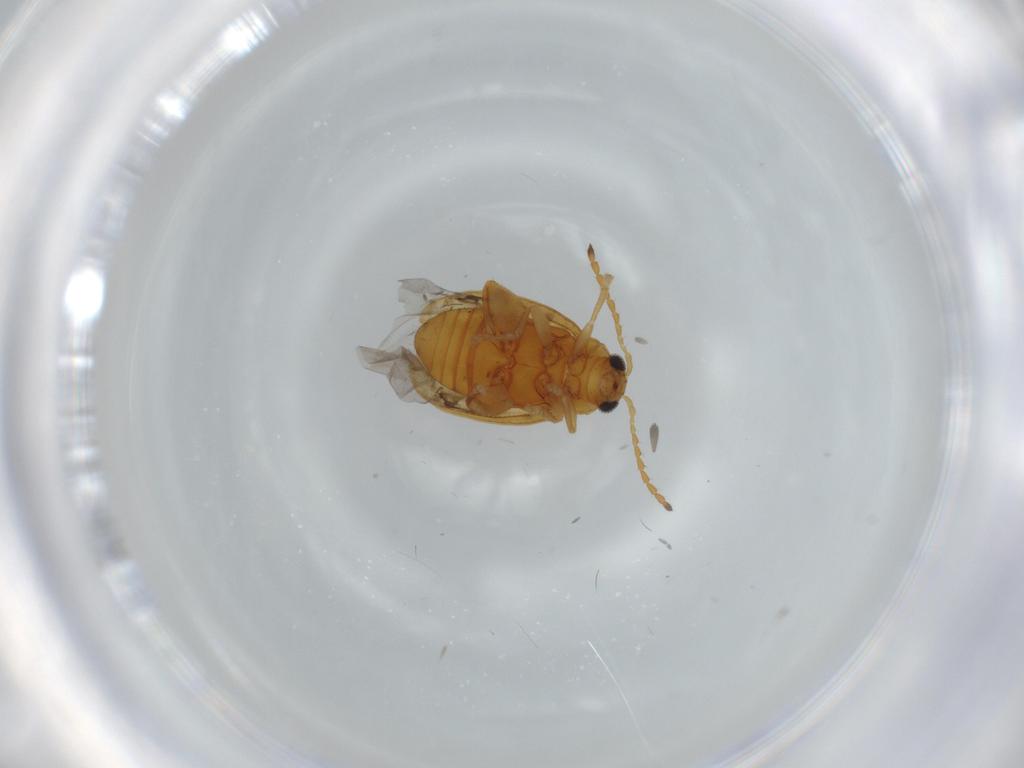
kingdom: Animalia
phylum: Arthropoda
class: Insecta
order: Coleoptera
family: Chrysomelidae
